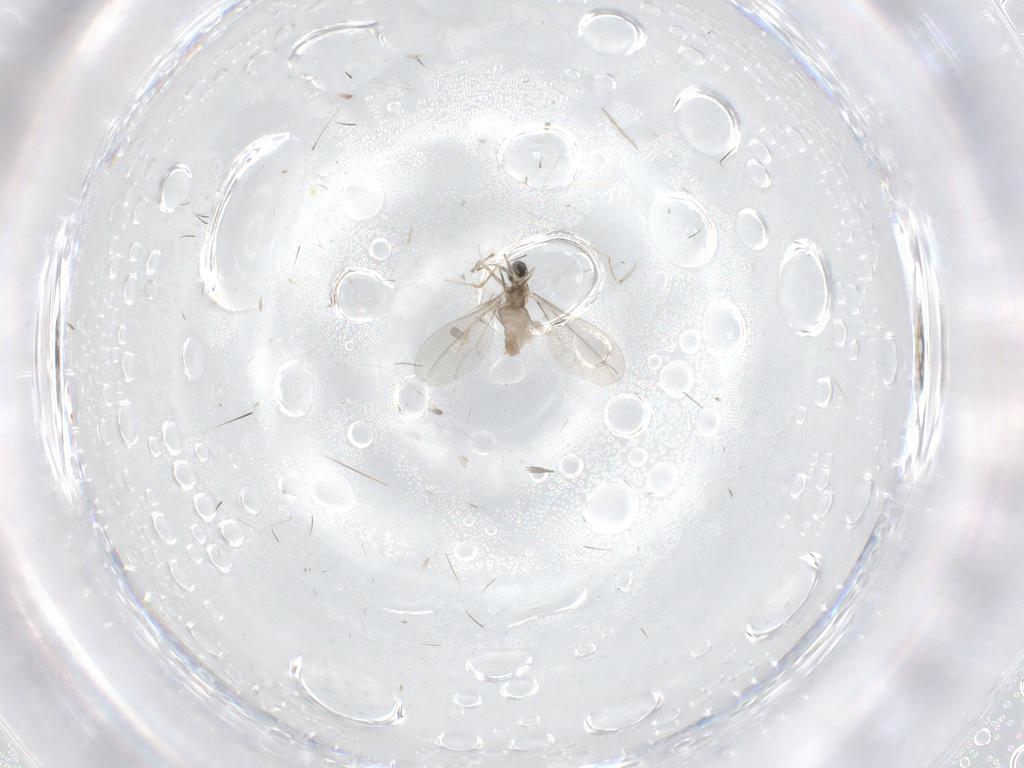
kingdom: Animalia
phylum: Arthropoda
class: Insecta
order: Diptera
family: Cecidomyiidae
